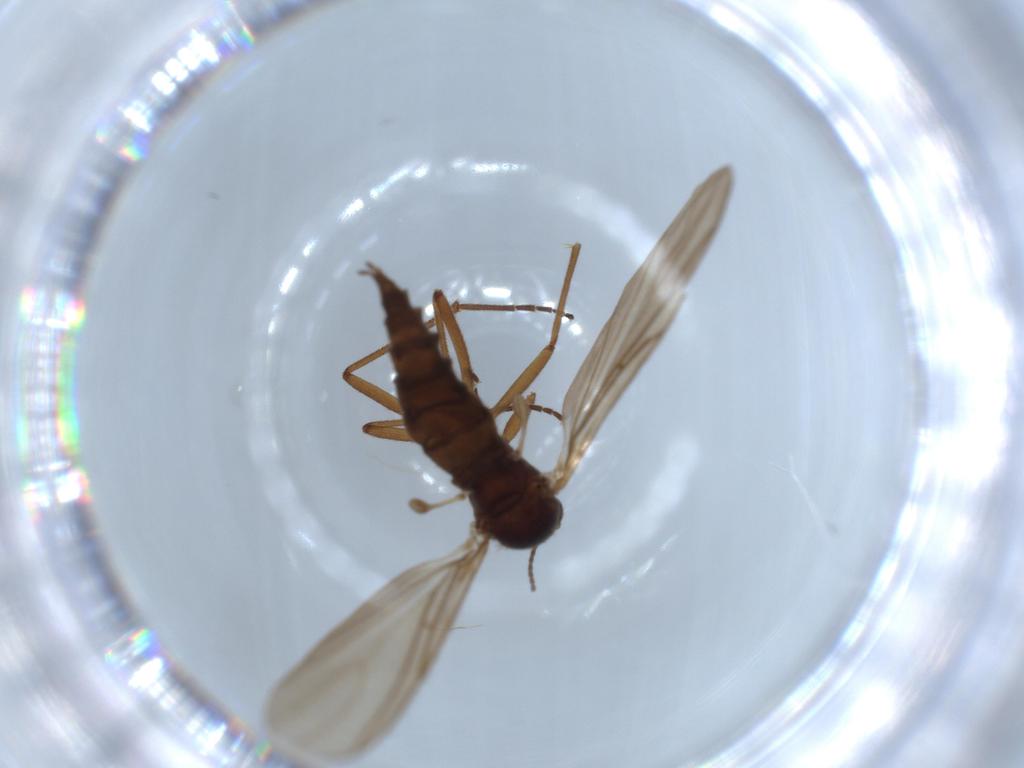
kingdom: Animalia
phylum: Arthropoda
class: Insecta
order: Diptera
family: Sciaridae
